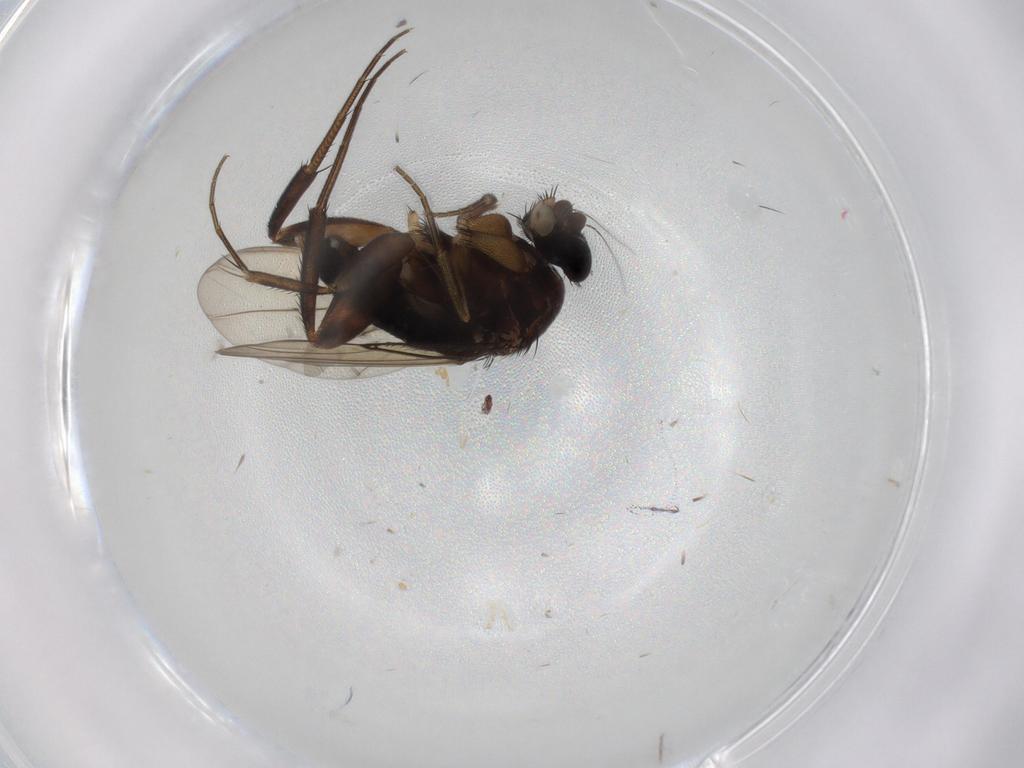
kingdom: Animalia
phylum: Arthropoda
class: Insecta
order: Diptera
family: Phoridae
